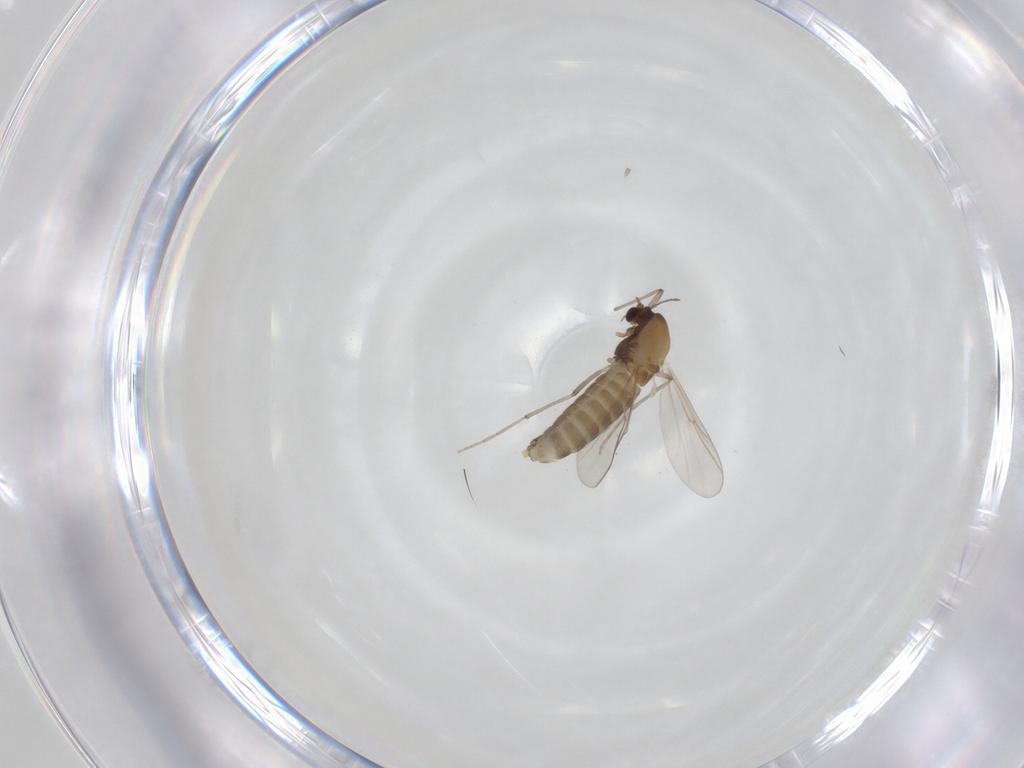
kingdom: Animalia
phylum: Arthropoda
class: Insecta
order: Diptera
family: Chironomidae
